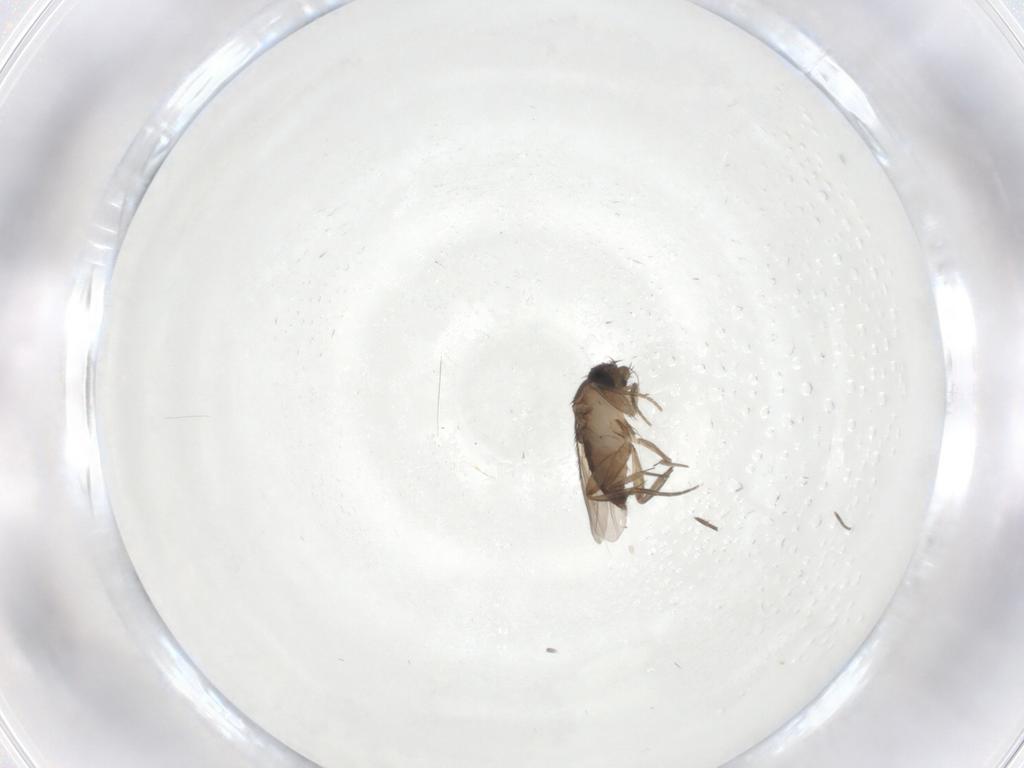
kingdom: Animalia
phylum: Arthropoda
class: Insecta
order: Diptera
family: Phoridae
